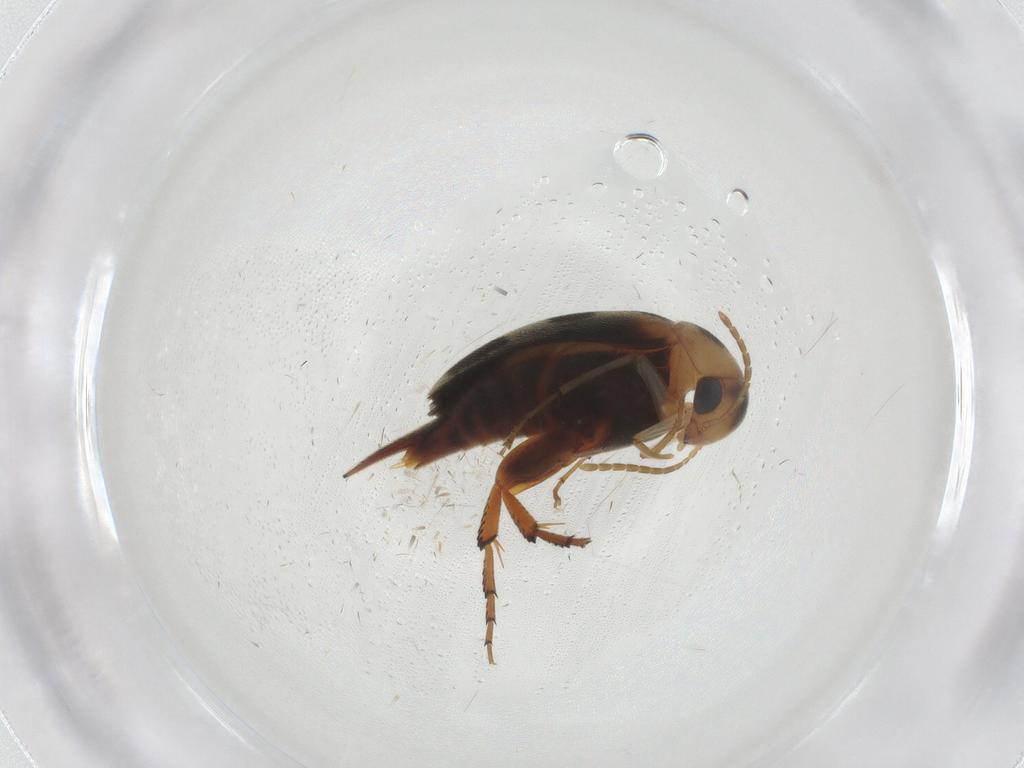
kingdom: Animalia
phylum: Arthropoda
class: Insecta
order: Coleoptera
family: Mordellidae
